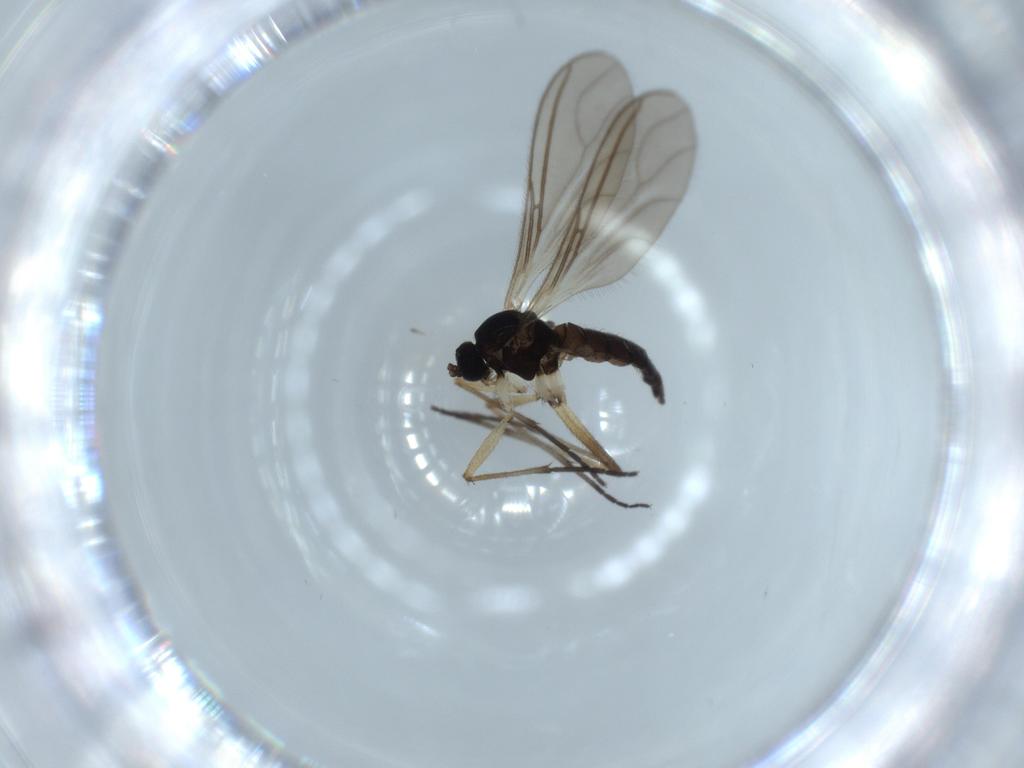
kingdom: Animalia
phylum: Arthropoda
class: Insecta
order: Diptera
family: Sciaridae
